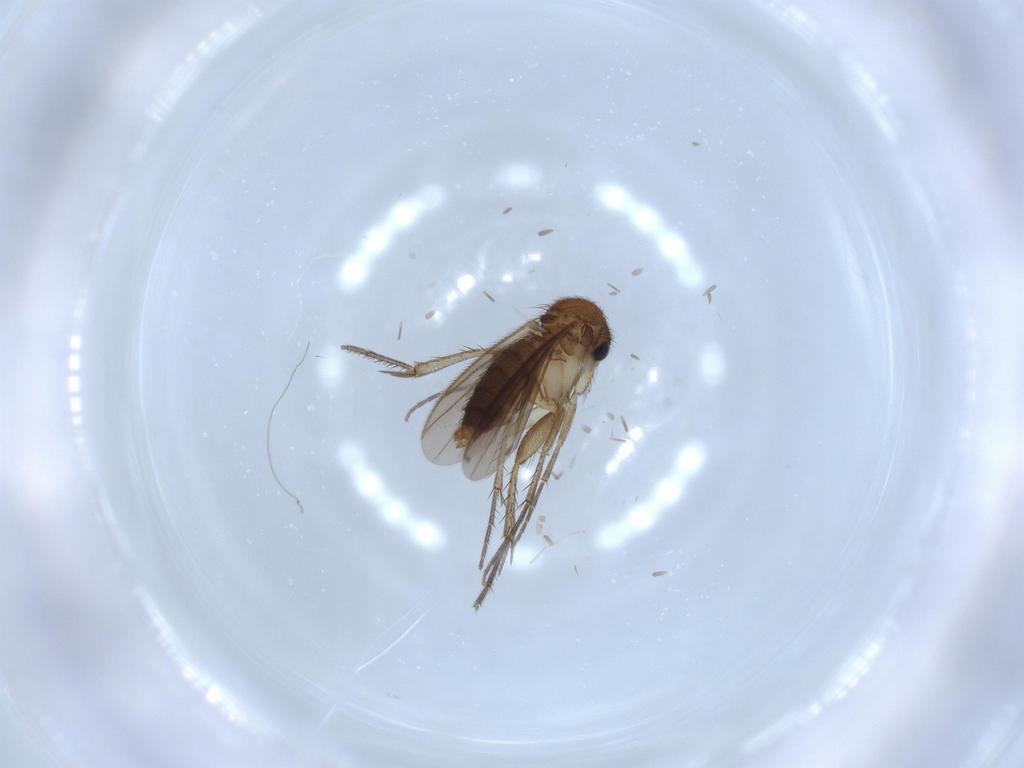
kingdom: Animalia
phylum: Arthropoda
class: Insecta
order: Diptera
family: Mycetophilidae
